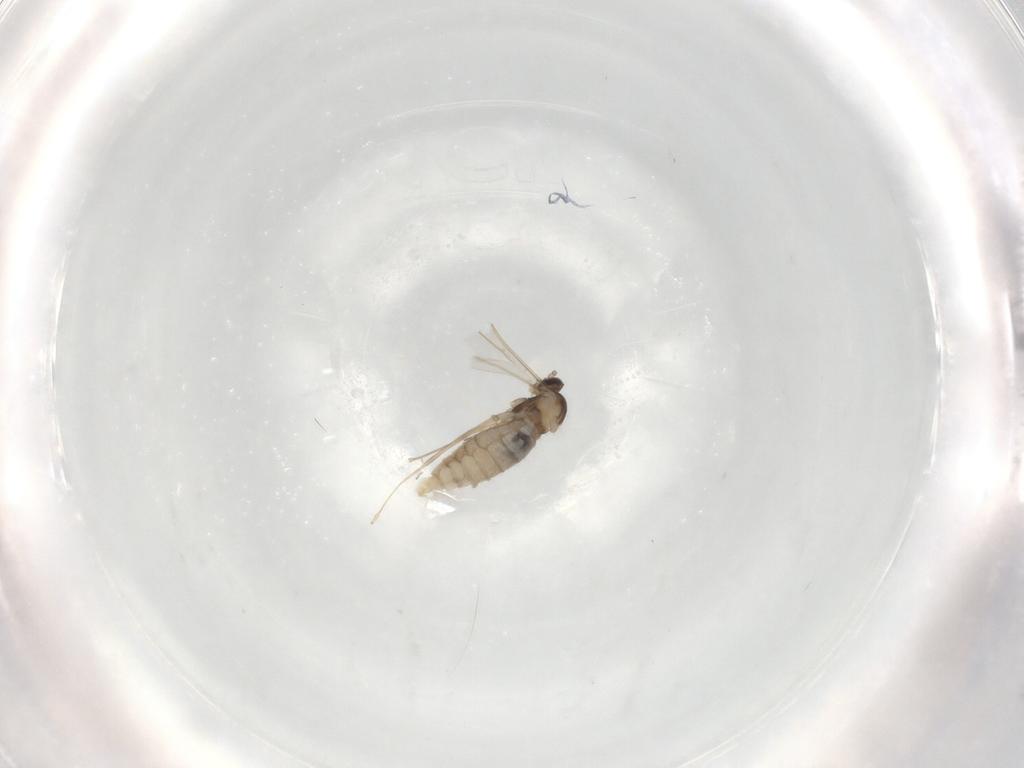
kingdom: Animalia
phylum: Arthropoda
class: Insecta
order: Diptera
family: Cecidomyiidae
